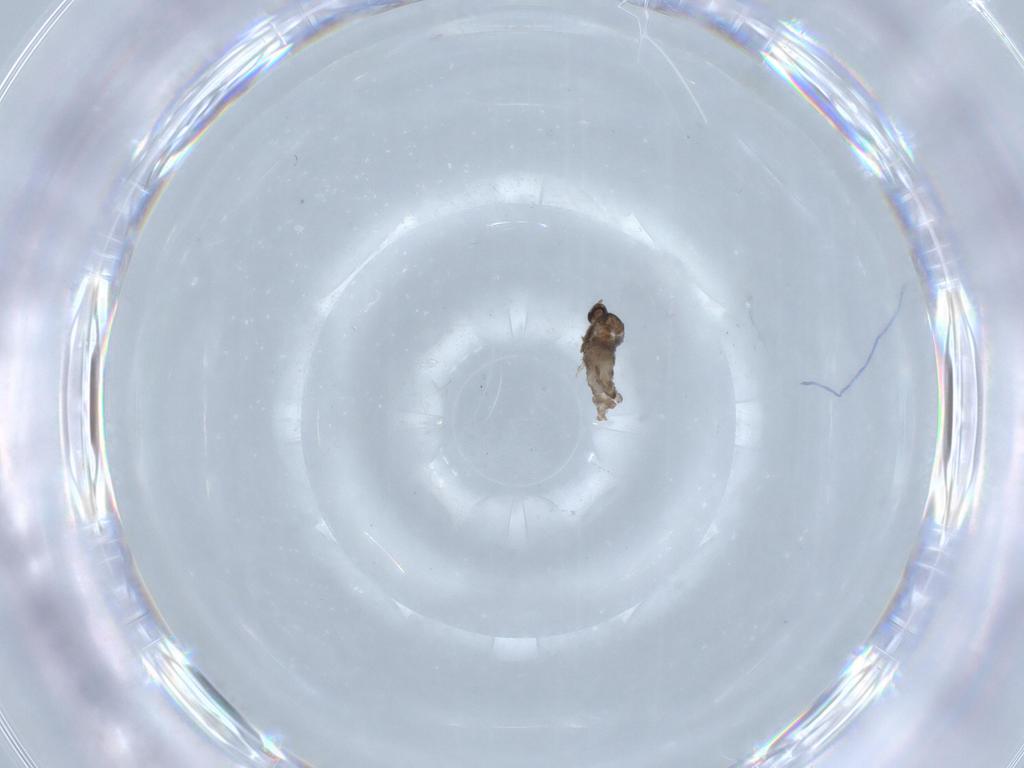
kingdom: Animalia
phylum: Arthropoda
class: Insecta
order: Diptera
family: Cecidomyiidae
